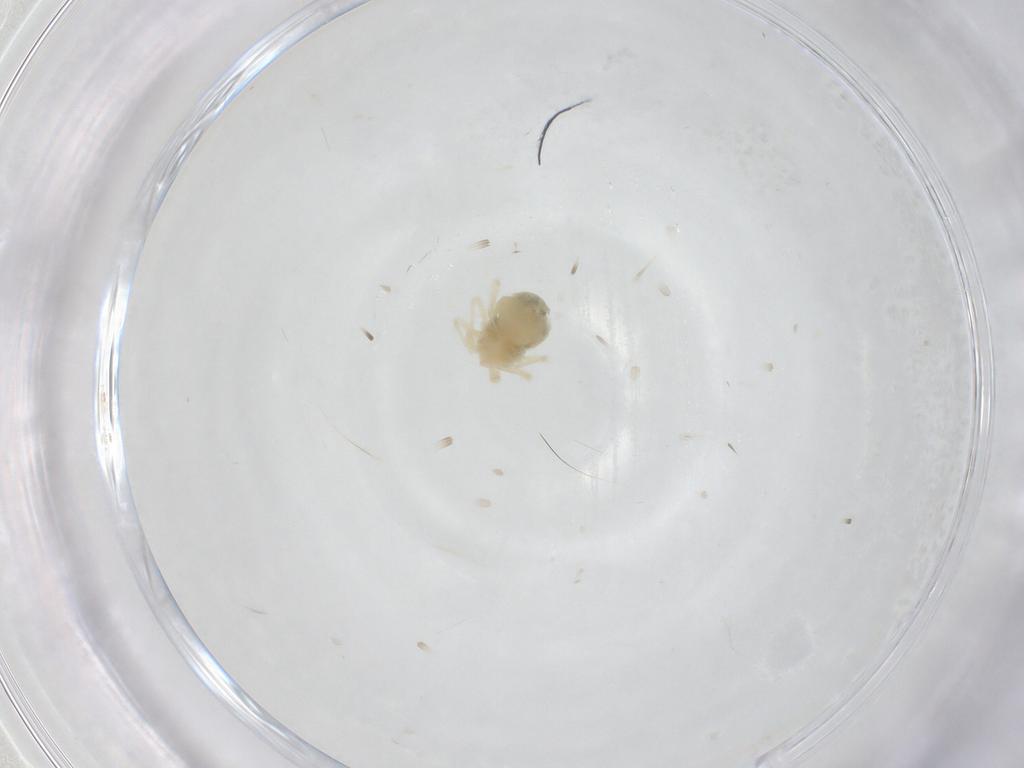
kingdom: Animalia
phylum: Arthropoda
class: Arachnida
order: Trombidiformes
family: Anystidae
